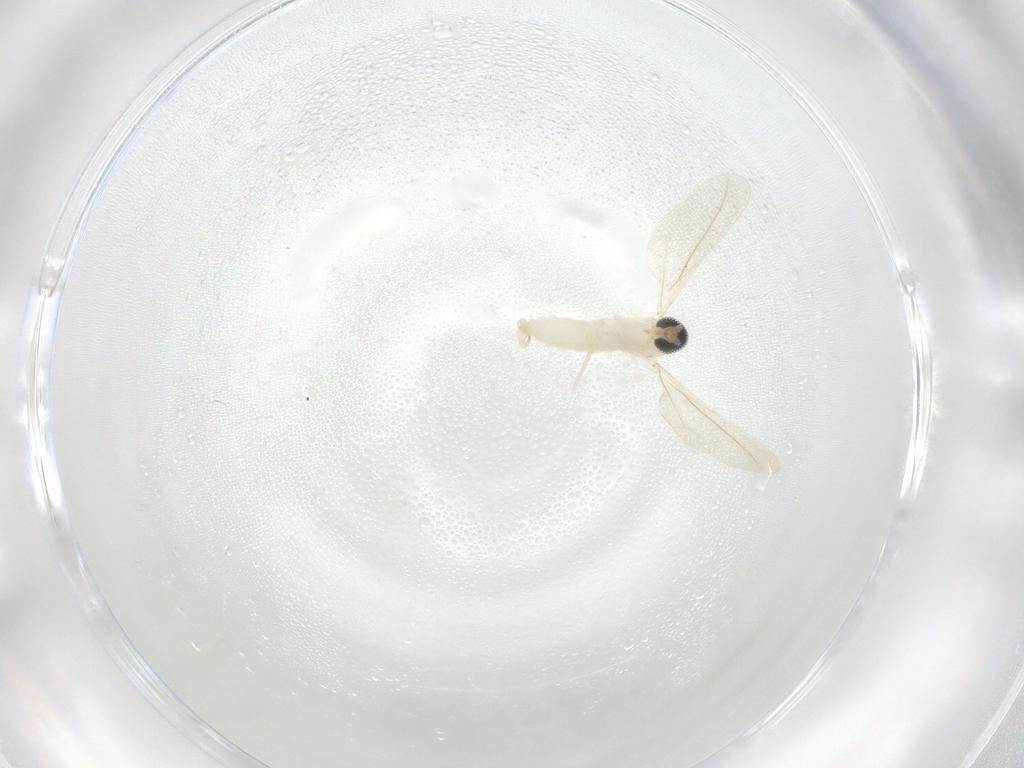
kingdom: Animalia
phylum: Arthropoda
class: Insecta
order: Diptera
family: Cecidomyiidae
